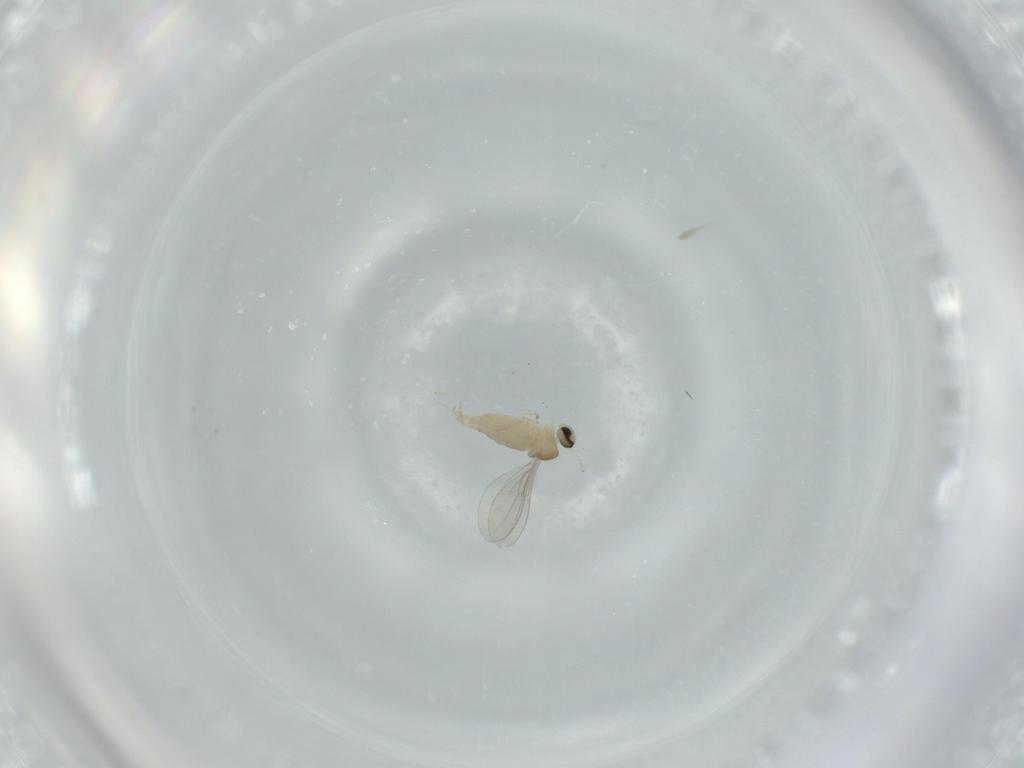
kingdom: Animalia
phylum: Arthropoda
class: Insecta
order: Diptera
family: Cecidomyiidae
